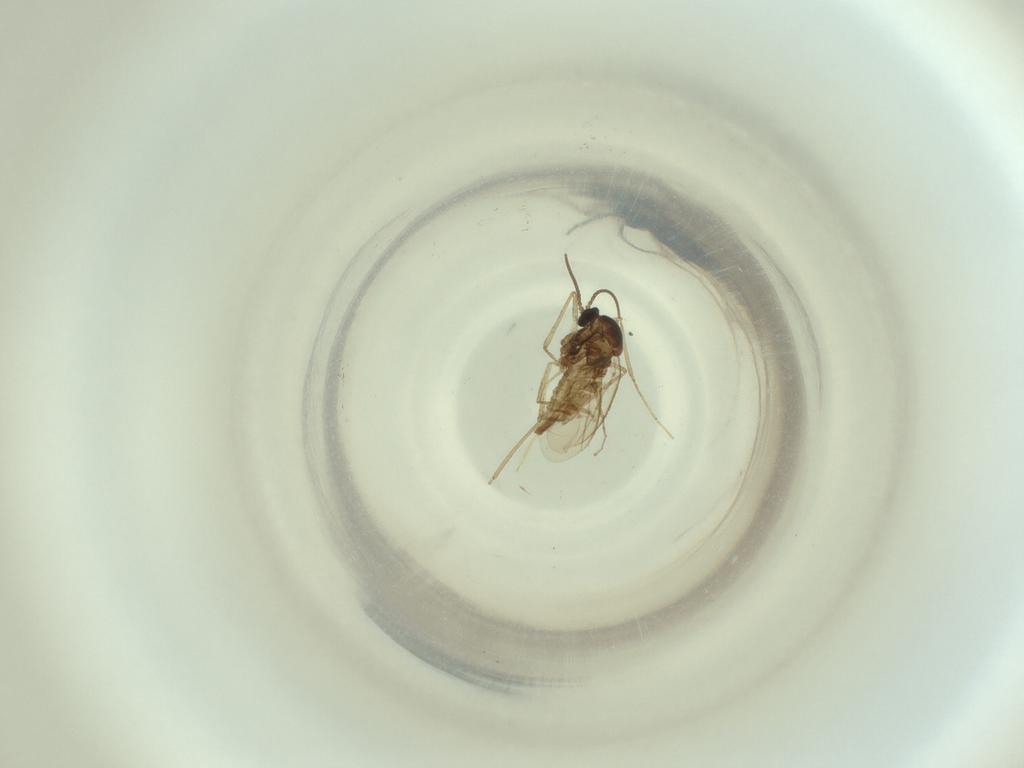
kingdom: Animalia
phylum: Arthropoda
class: Insecta
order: Diptera
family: Cecidomyiidae
